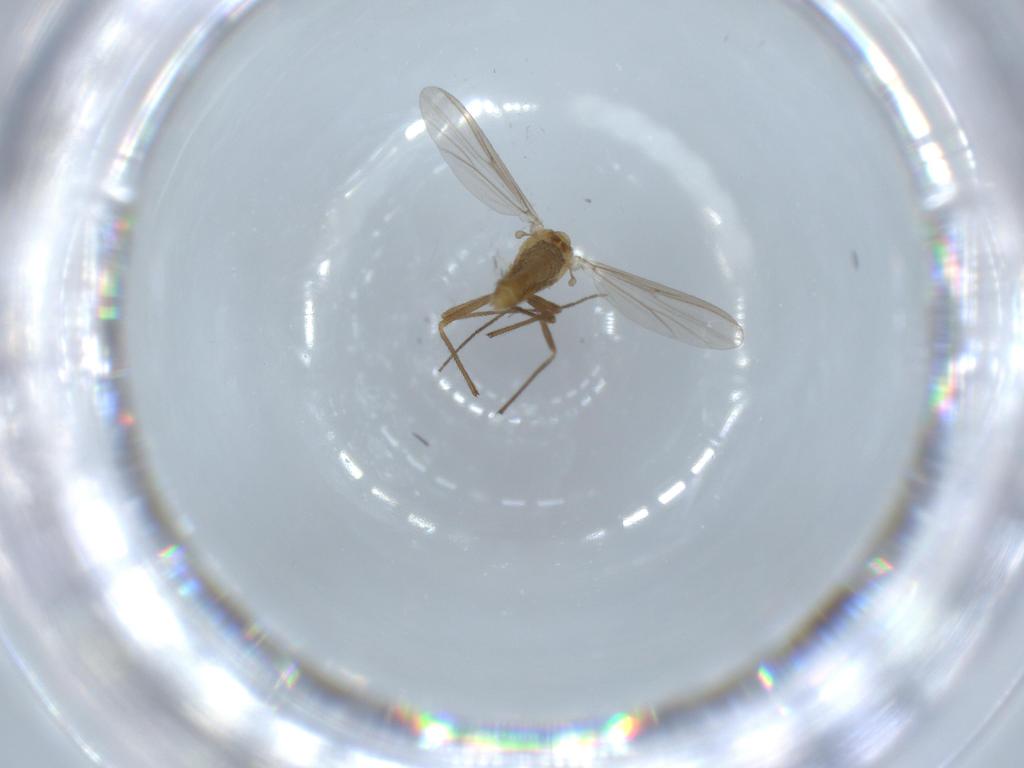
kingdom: Animalia
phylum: Arthropoda
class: Insecta
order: Diptera
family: Chironomidae
